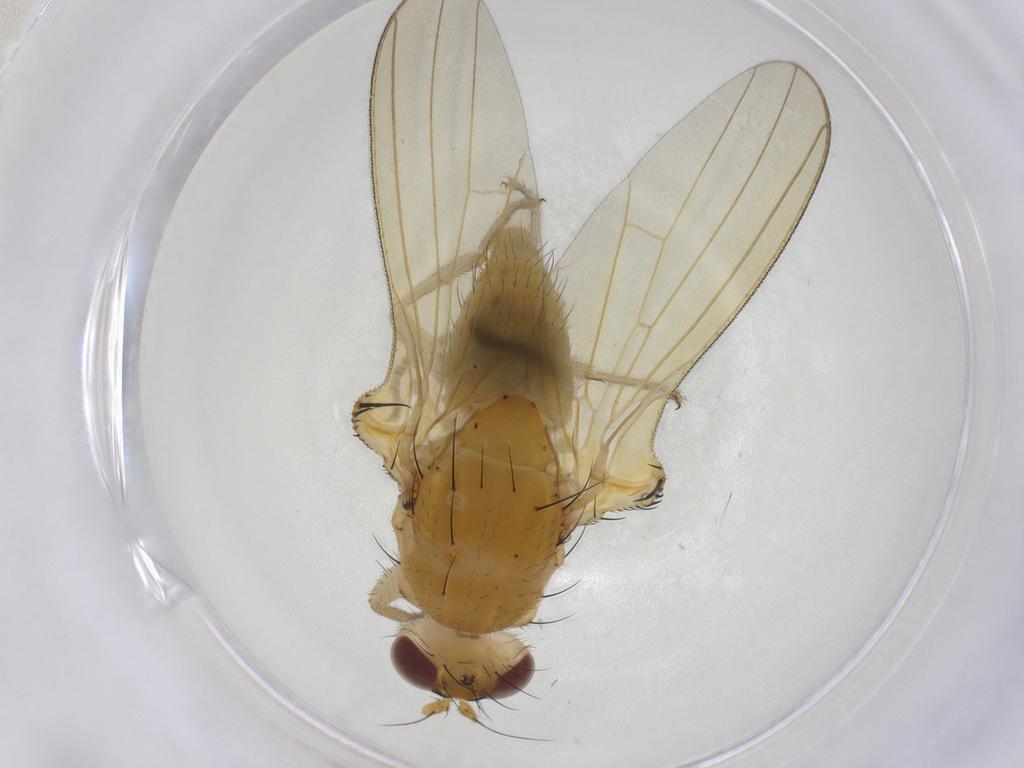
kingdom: Animalia
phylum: Arthropoda
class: Insecta
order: Diptera
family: Lauxaniidae
